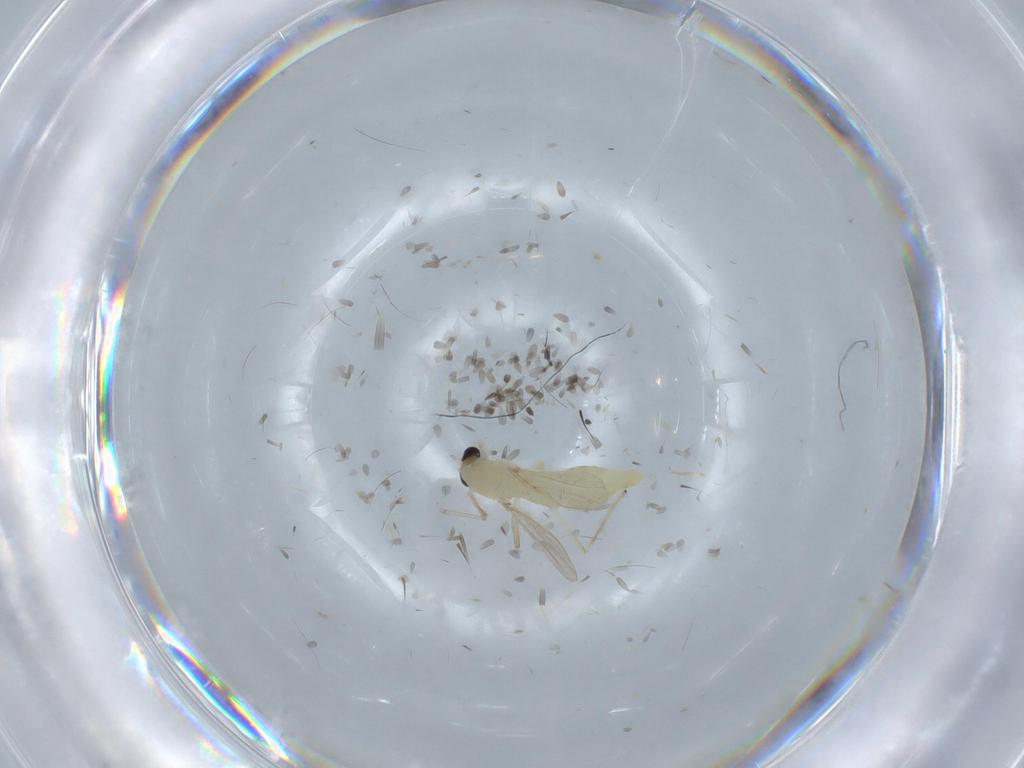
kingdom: Animalia
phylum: Arthropoda
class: Insecta
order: Diptera
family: Chironomidae
